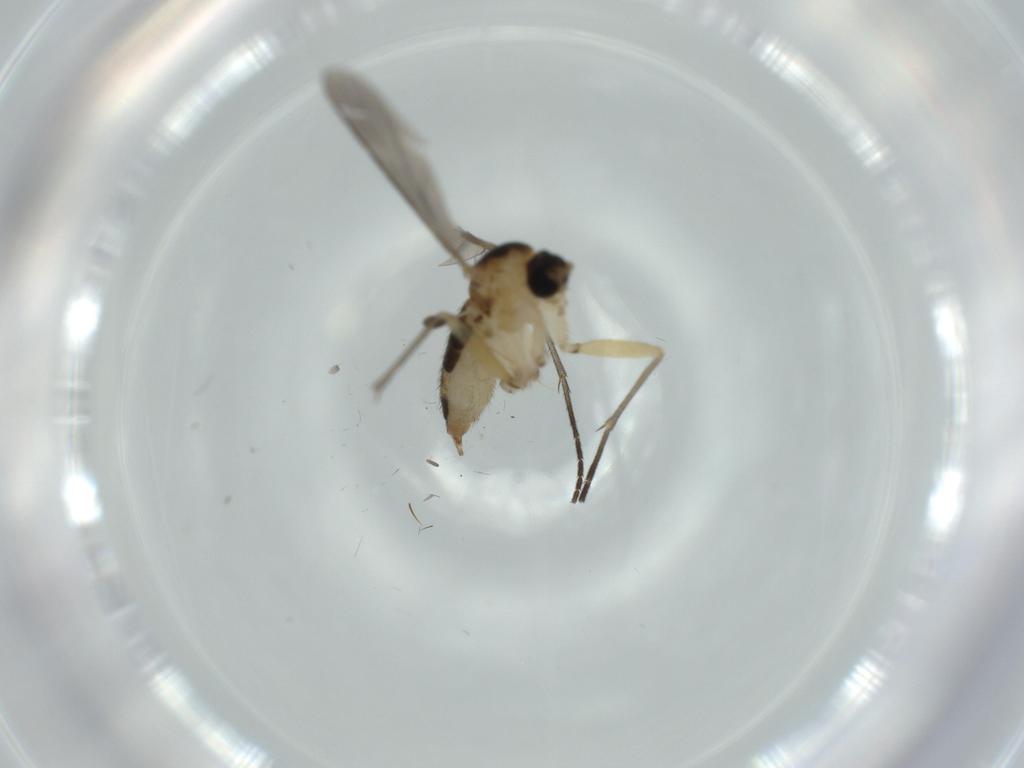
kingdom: Animalia
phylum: Arthropoda
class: Insecta
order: Diptera
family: Sciaridae
